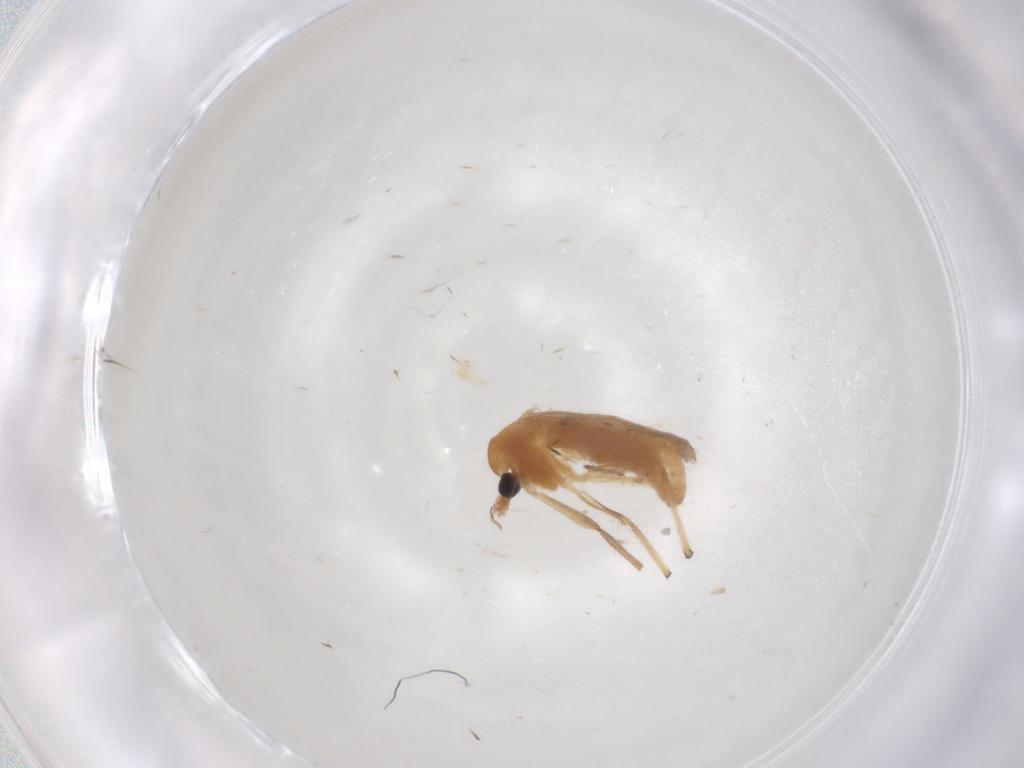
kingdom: Animalia
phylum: Arthropoda
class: Insecta
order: Diptera
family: Chironomidae
